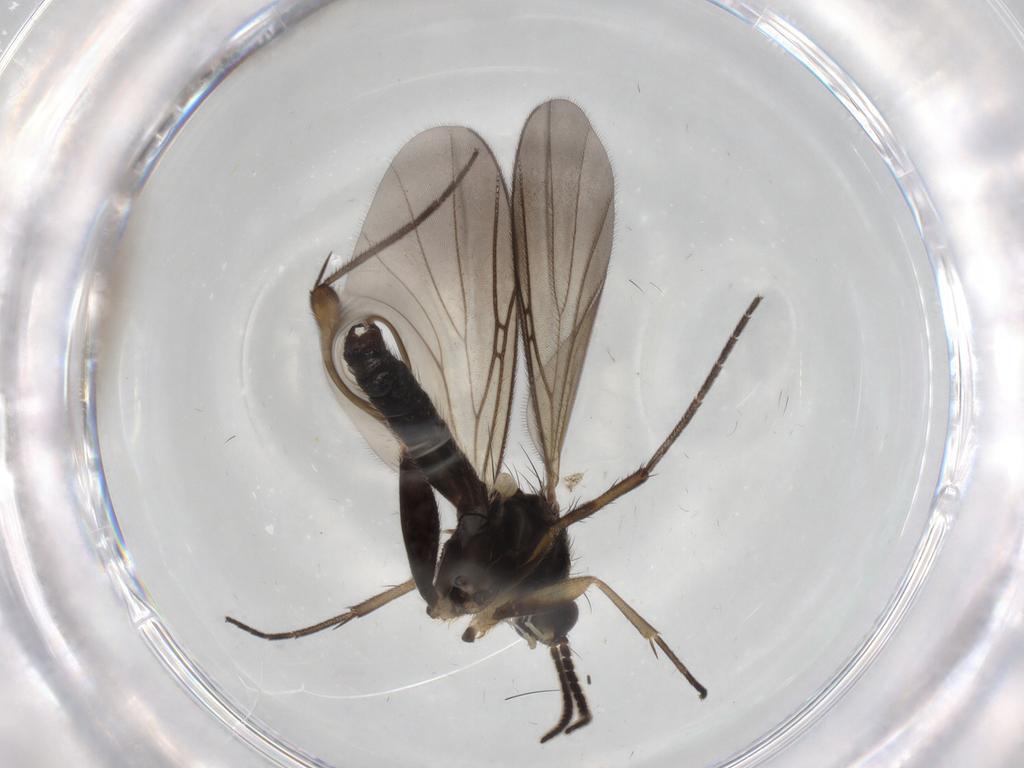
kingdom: Animalia
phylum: Arthropoda
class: Insecta
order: Diptera
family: Mycetophilidae
